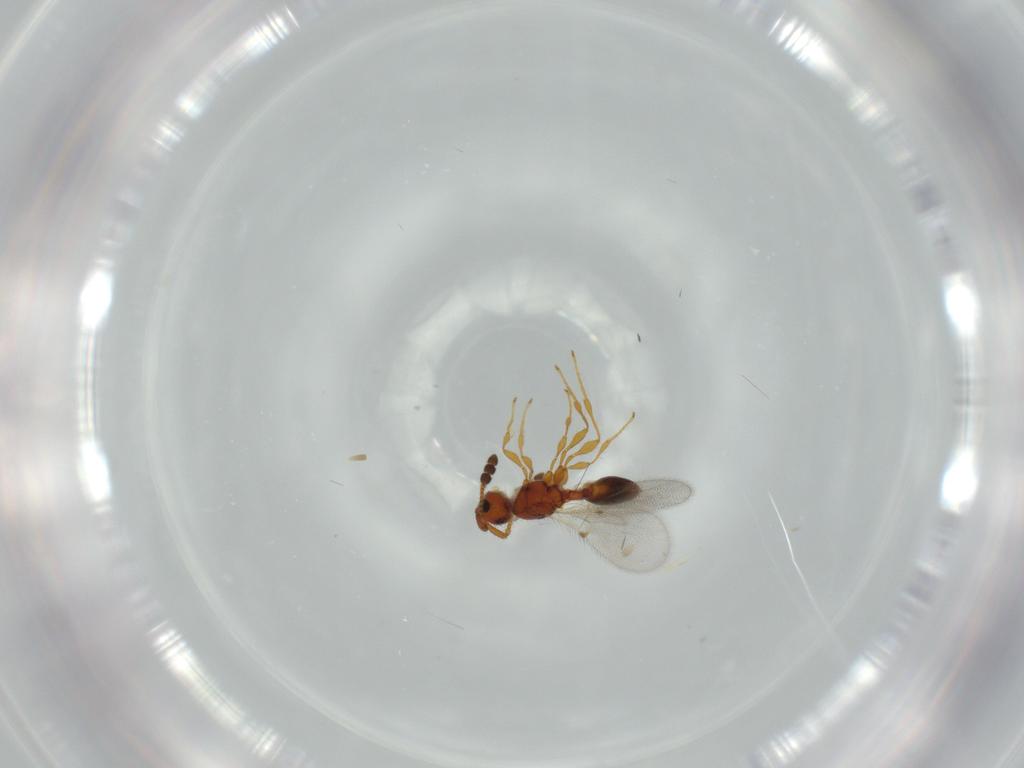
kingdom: Animalia
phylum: Arthropoda
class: Insecta
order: Hymenoptera
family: Diapriidae
